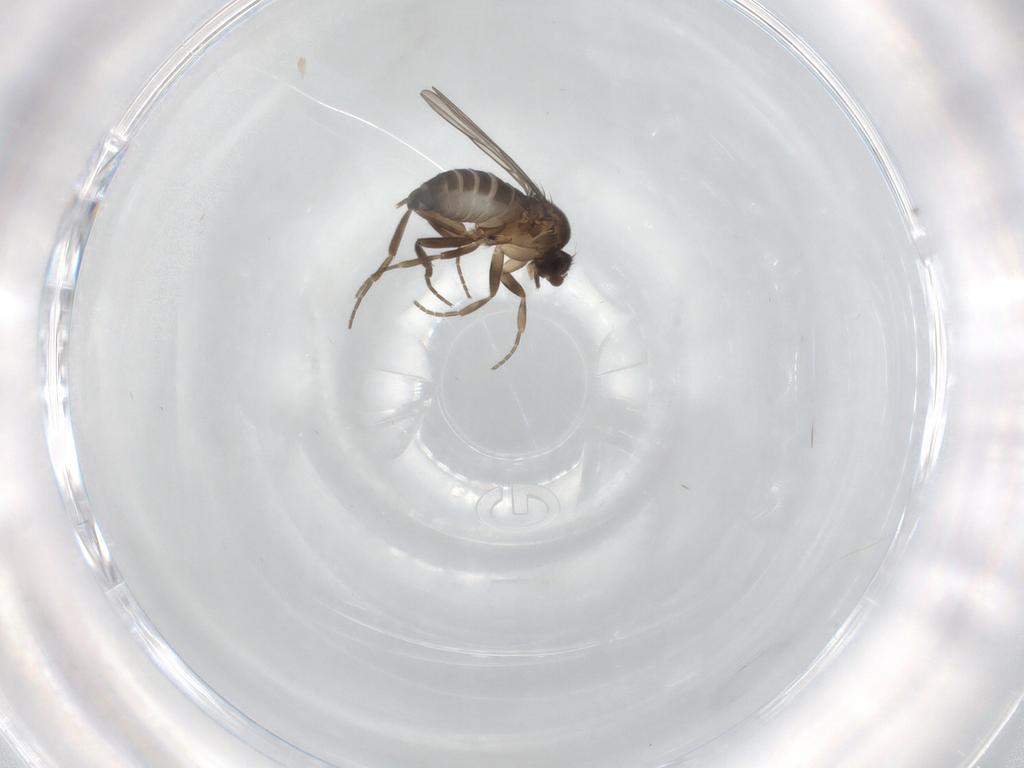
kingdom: Animalia
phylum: Arthropoda
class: Insecta
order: Diptera
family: Phoridae
